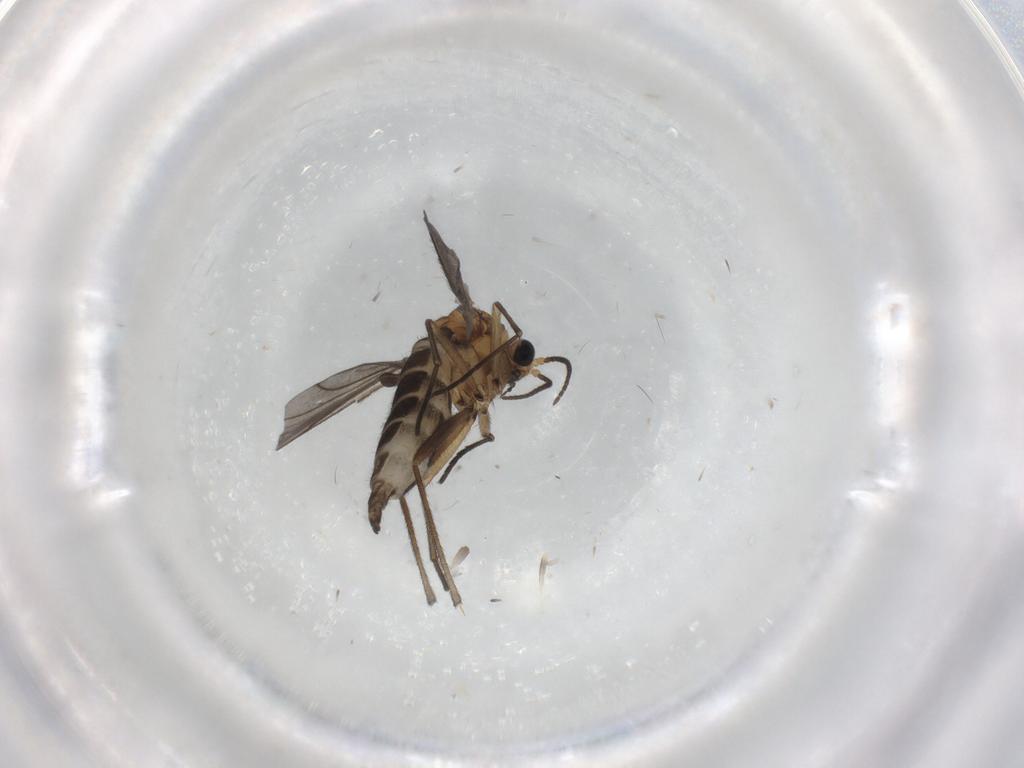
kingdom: Animalia
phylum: Arthropoda
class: Insecta
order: Diptera
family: Sciaridae
